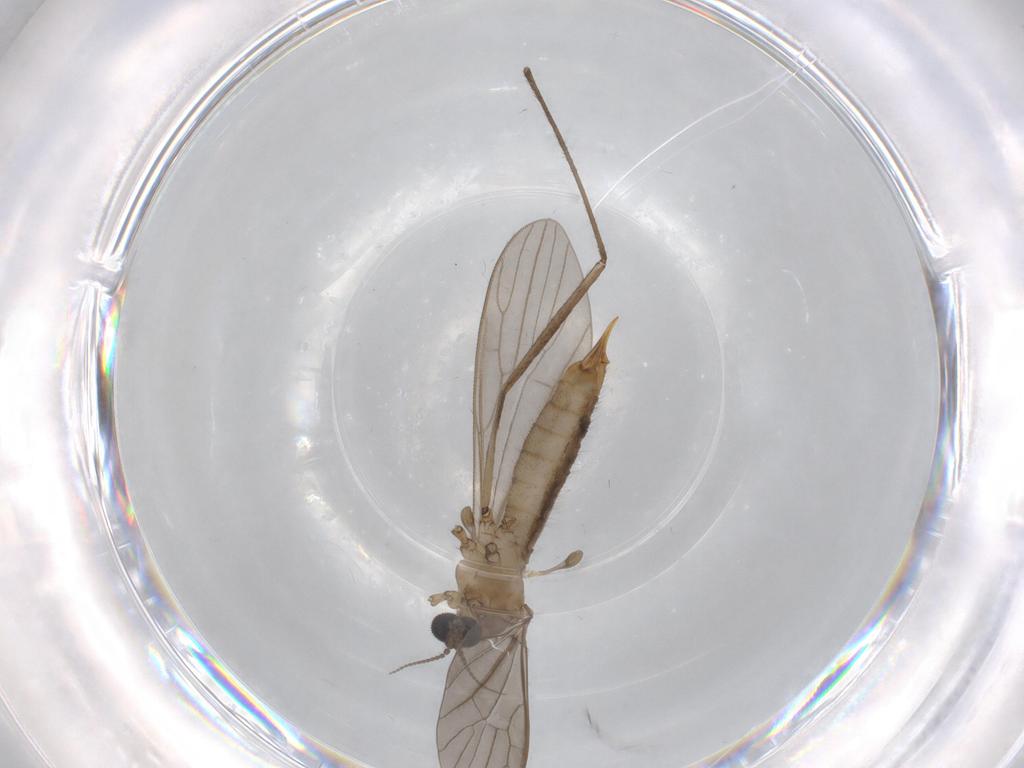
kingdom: Animalia
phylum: Arthropoda
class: Insecta
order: Diptera
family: Limoniidae
